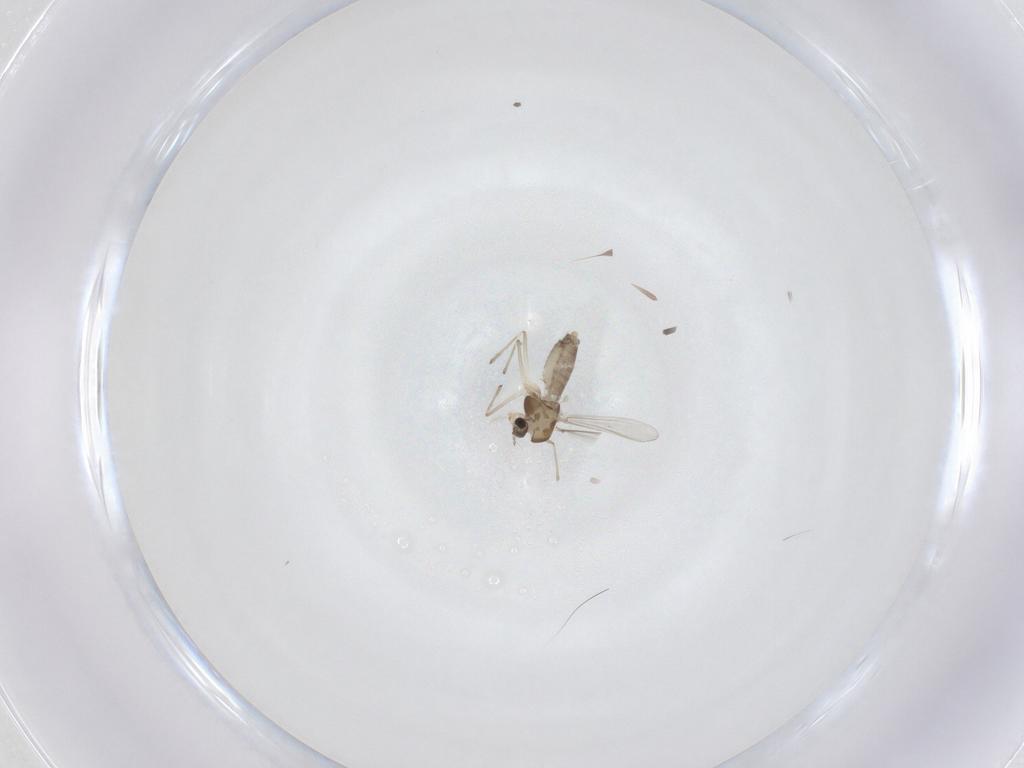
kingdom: Animalia
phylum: Arthropoda
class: Insecta
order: Diptera
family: Chironomidae
